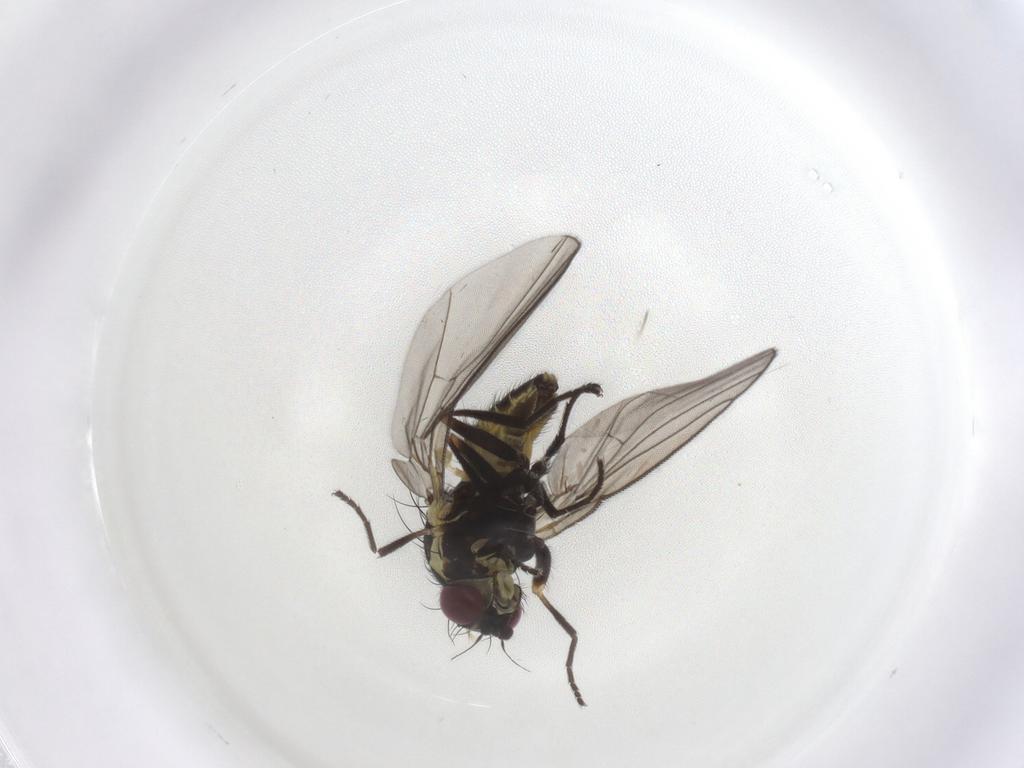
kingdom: Animalia
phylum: Arthropoda
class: Insecta
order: Diptera
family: Agromyzidae
